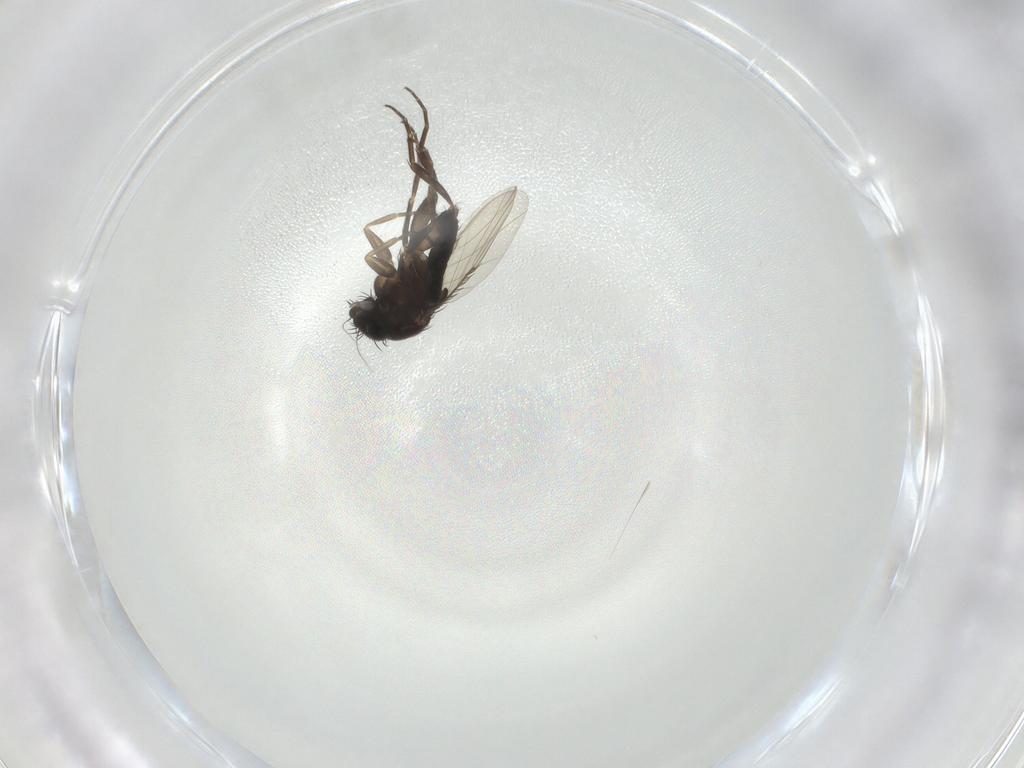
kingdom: Animalia
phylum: Arthropoda
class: Insecta
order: Diptera
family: Phoridae
